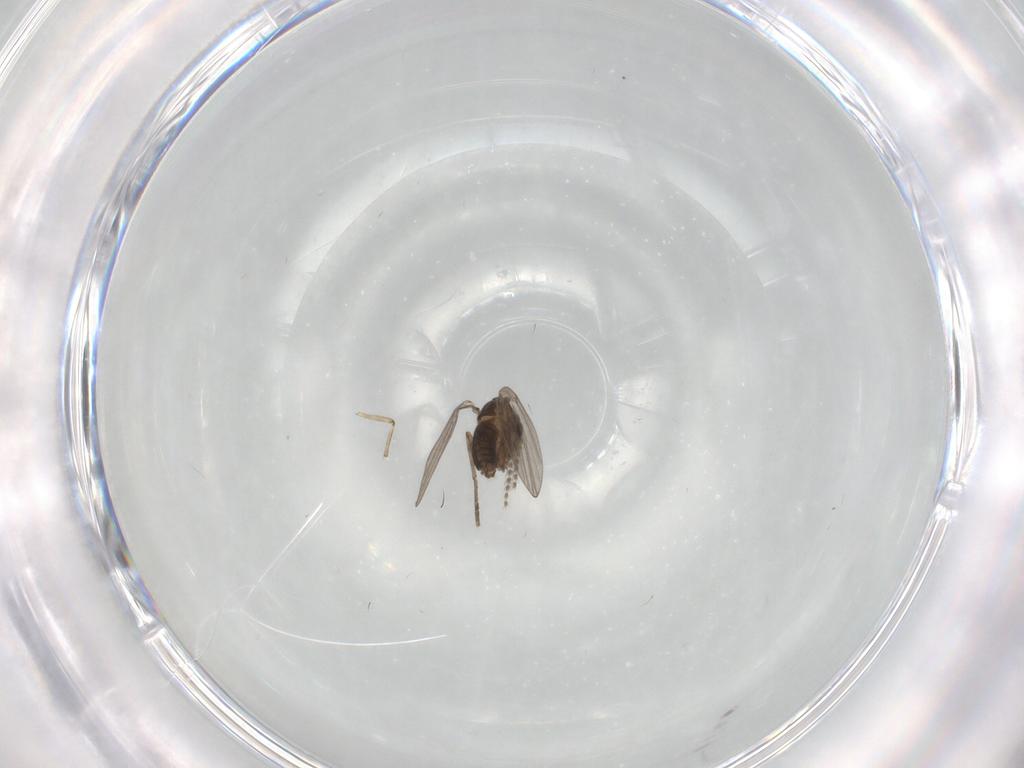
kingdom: Animalia
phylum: Arthropoda
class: Insecta
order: Diptera
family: Ceratopogonidae
